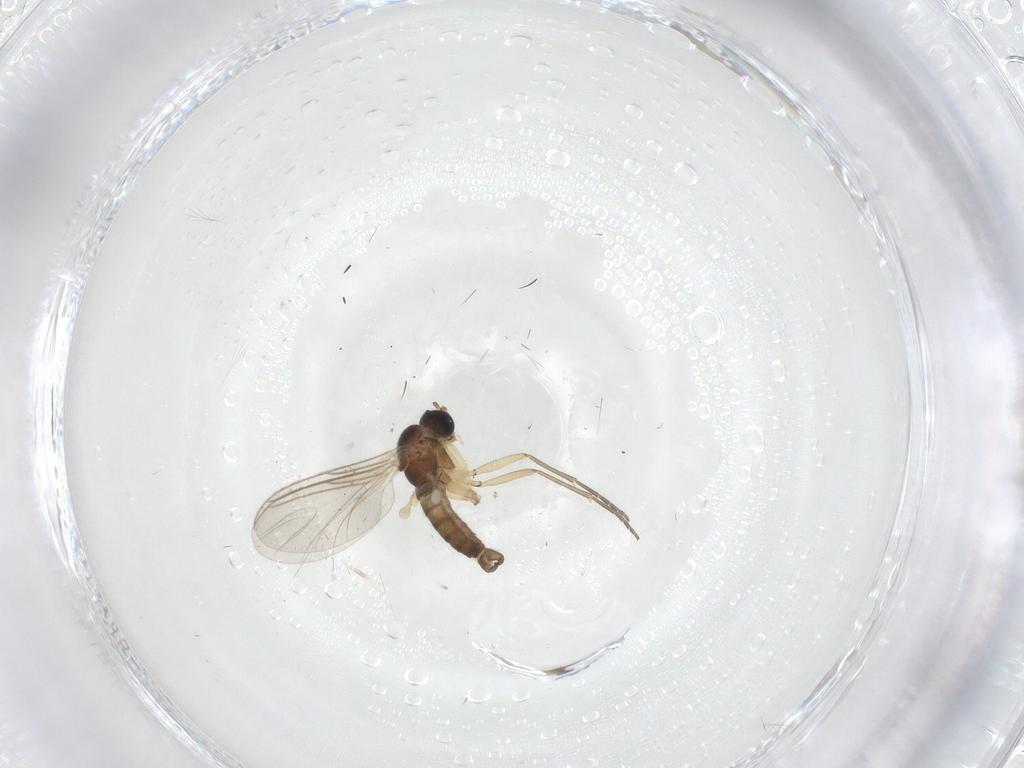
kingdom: Animalia
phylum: Arthropoda
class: Insecta
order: Diptera
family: Sciaridae
